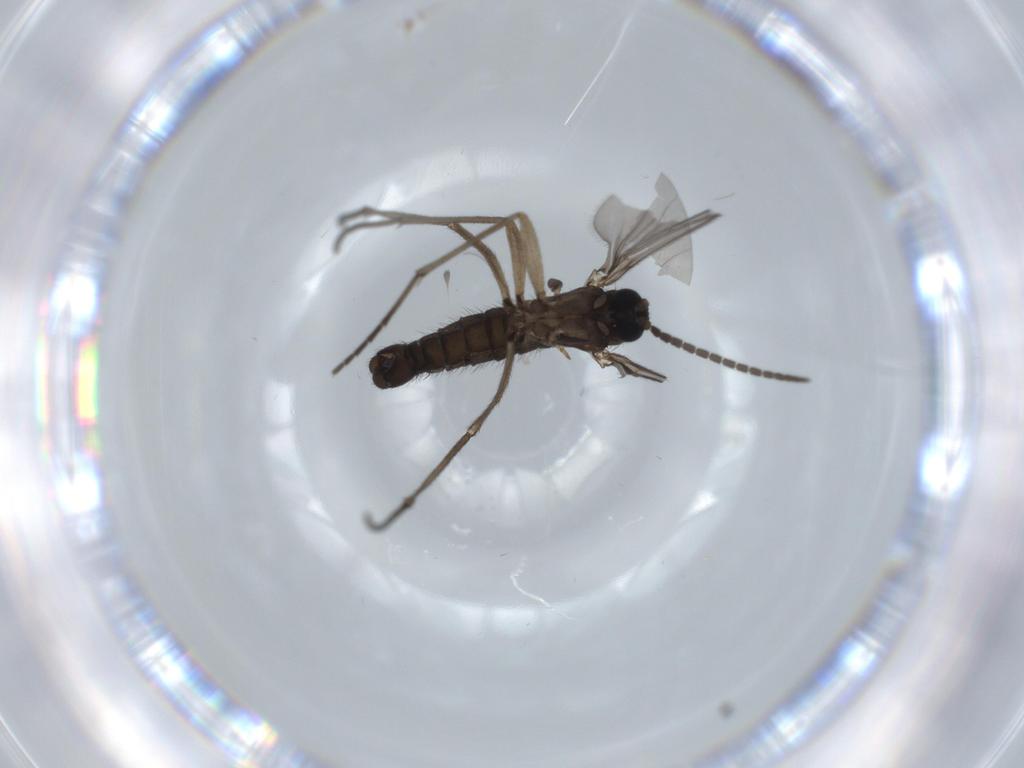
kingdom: Animalia
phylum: Arthropoda
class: Insecta
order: Diptera
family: Sciaridae
